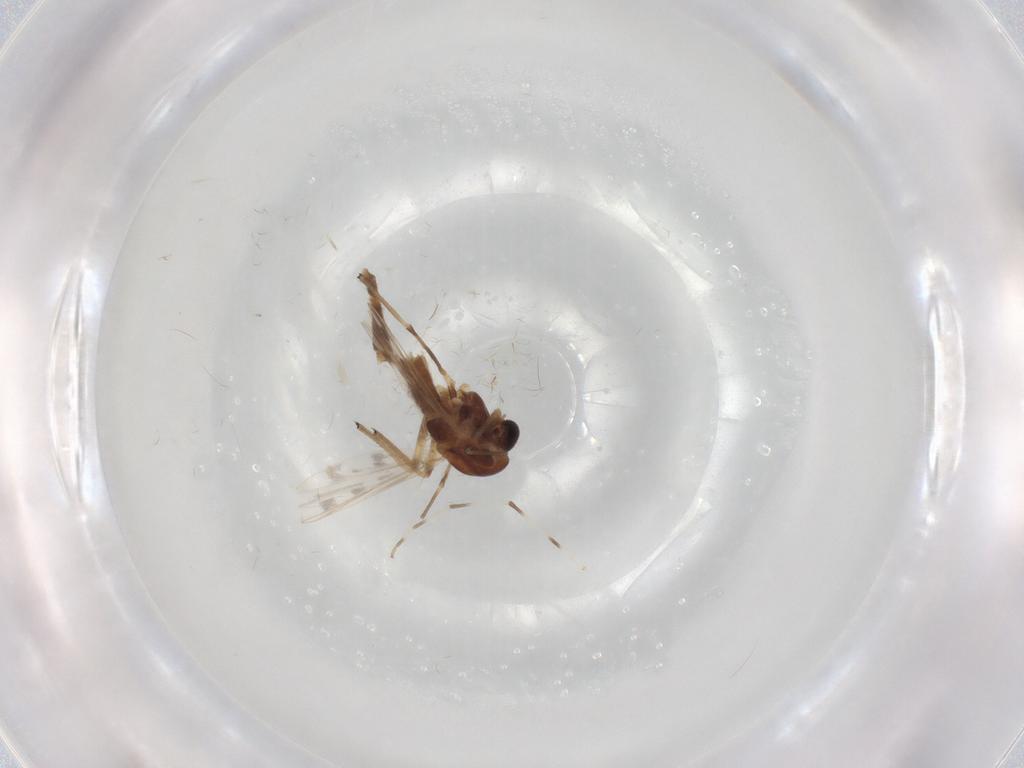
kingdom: Animalia
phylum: Arthropoda
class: Insecta
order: Diptera
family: Chironomidae
